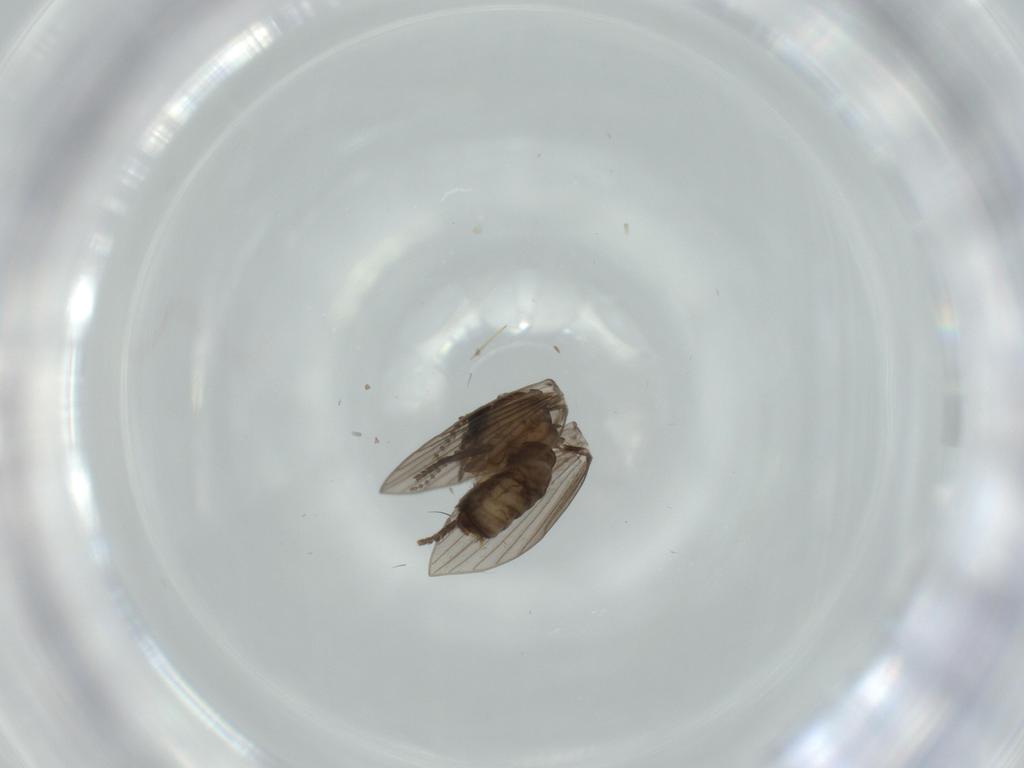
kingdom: Animalia
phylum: Arthropoda
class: Insecta
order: Diptera
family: Psychodidae
